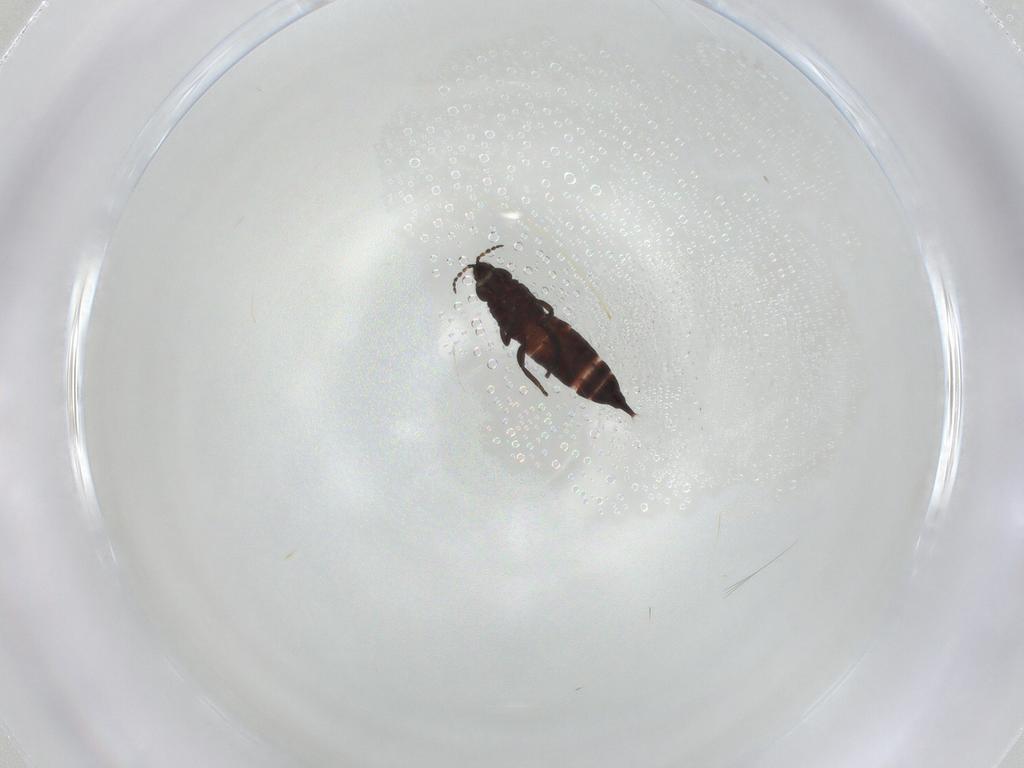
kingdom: Animalia
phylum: Arthropoda
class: Insecta
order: Thysanoptera
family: Phlaeothripidae
